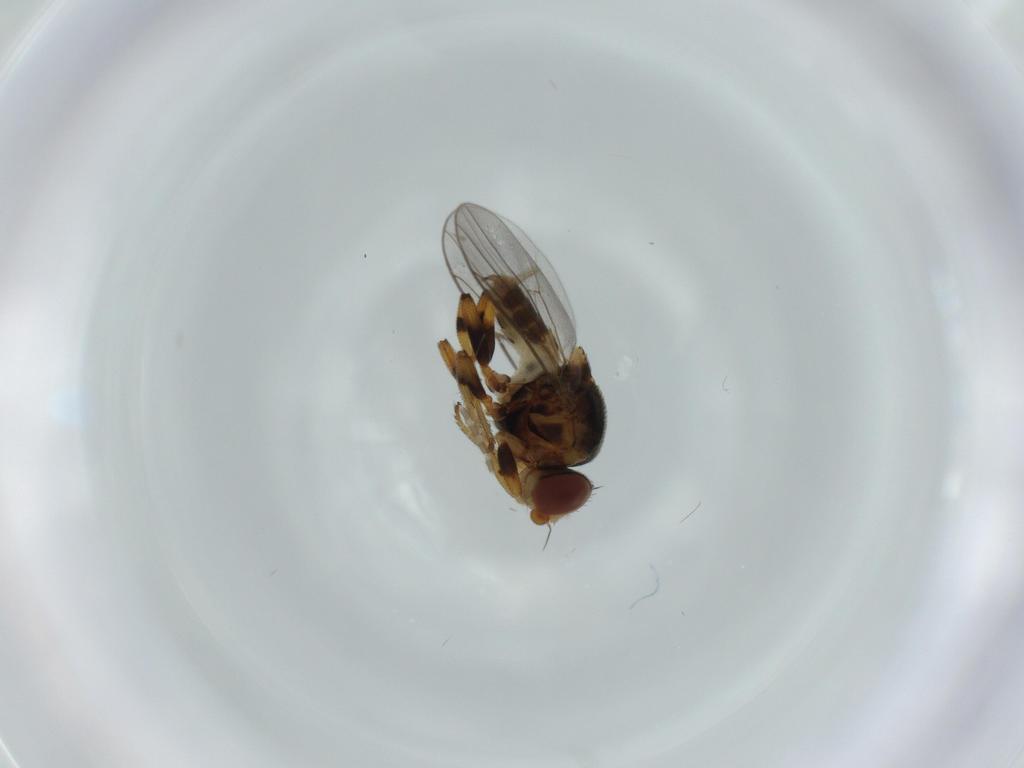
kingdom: Animalia
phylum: Arthropoda
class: Insecta
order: Diptera
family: Chloropidae
